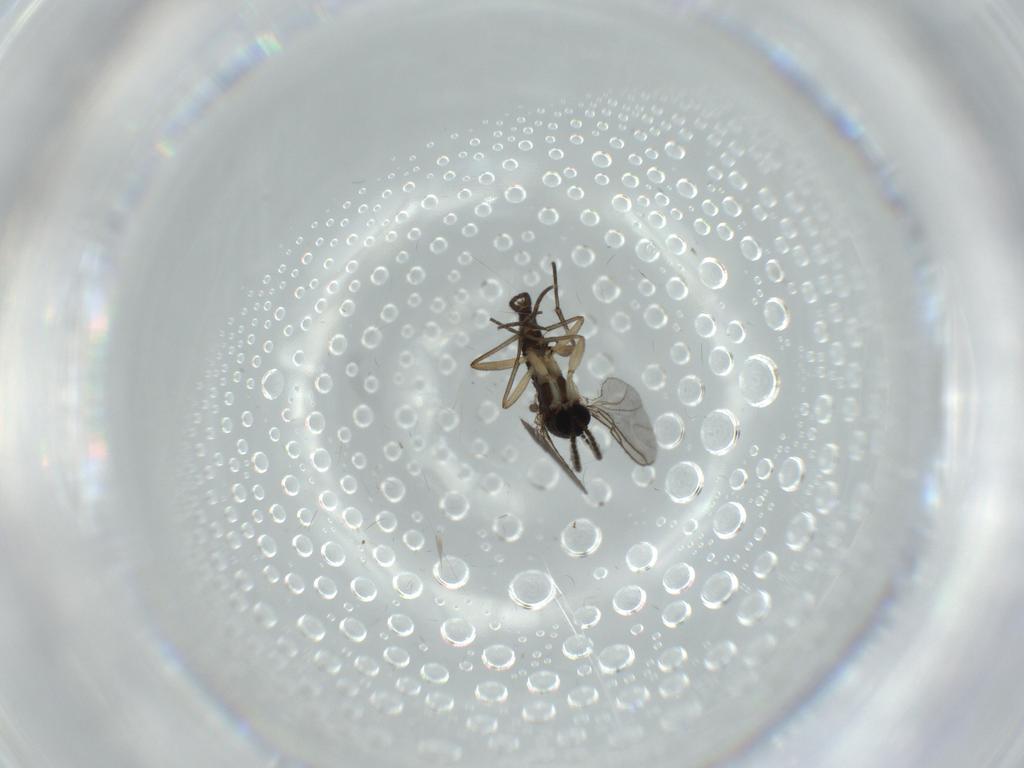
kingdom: Animalia
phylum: Arthropoda
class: Insecta
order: Diptera
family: Sciaridae
